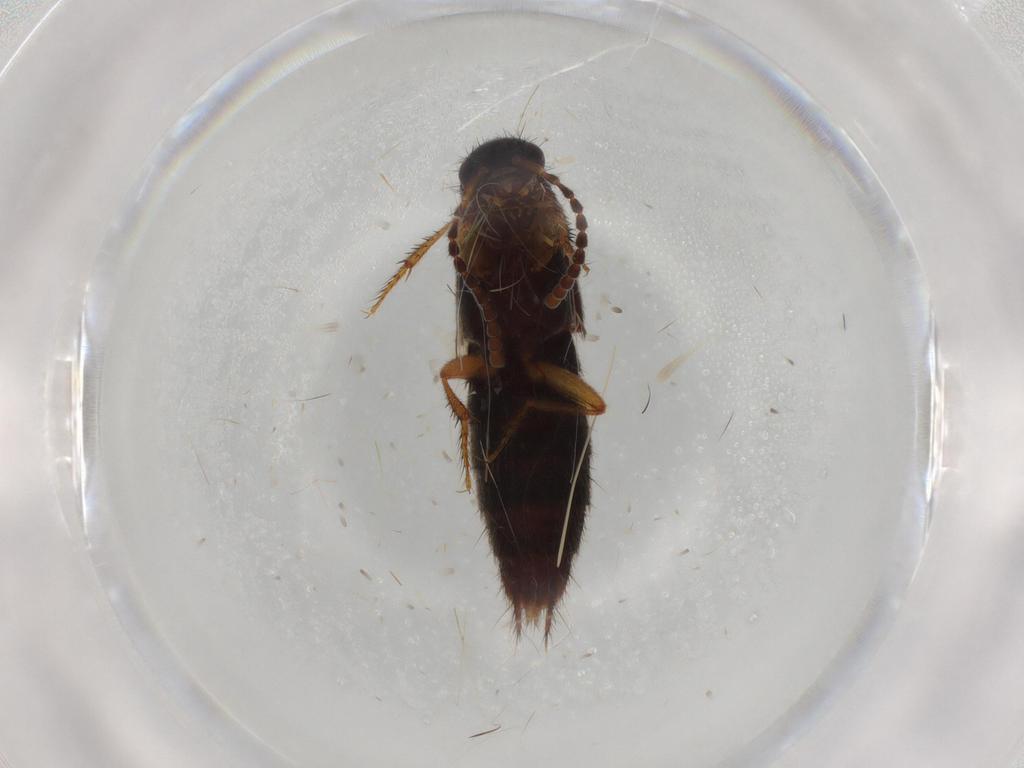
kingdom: Animalia
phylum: Arthropoda
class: Insecta
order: Coleoptera
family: Staphylinidae
